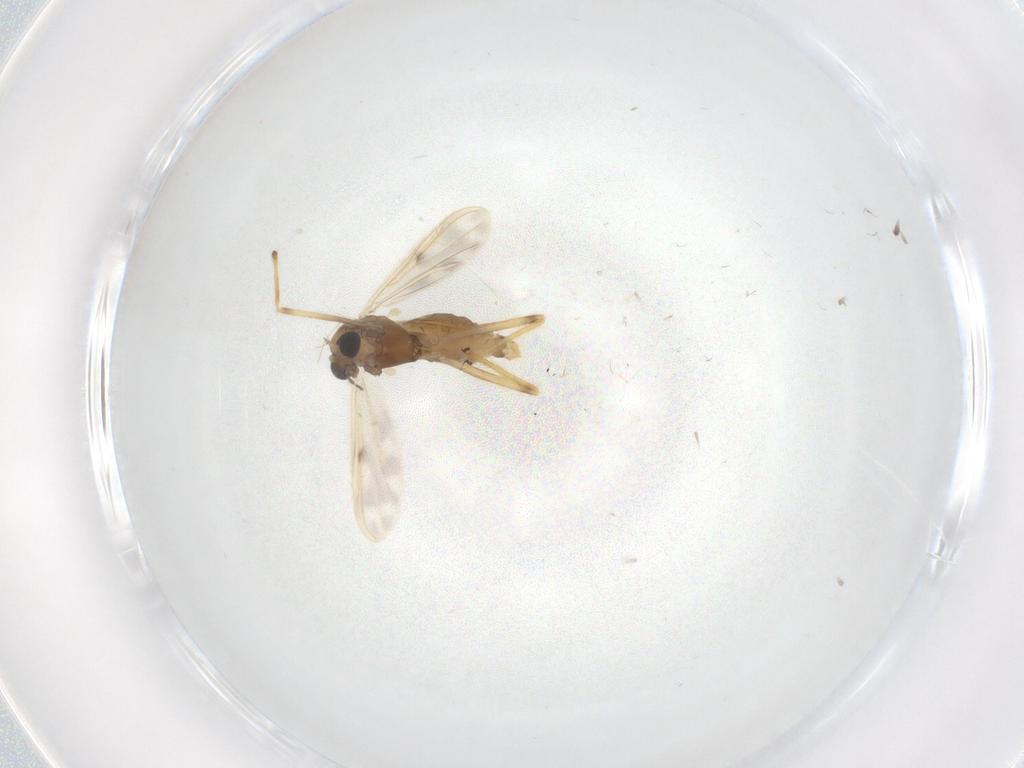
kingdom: Animalia
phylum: Arthropoda
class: Insecta
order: Diptera
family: Chironomidae
